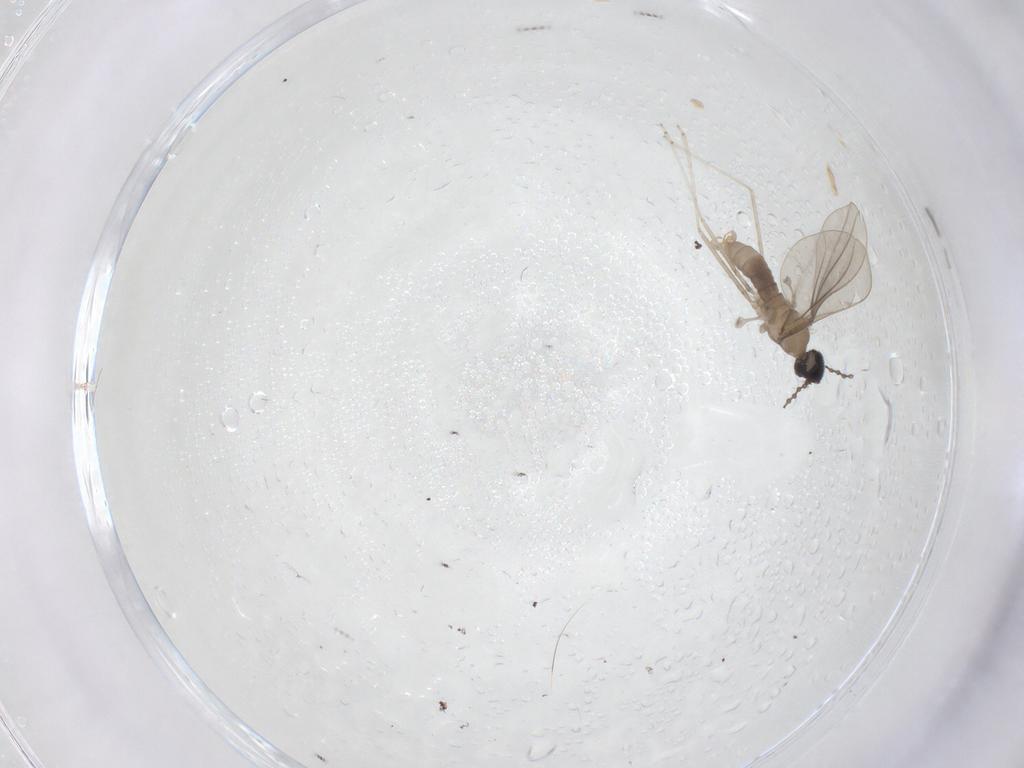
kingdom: Animalia
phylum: Arthropoda
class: Insecta
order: Diptera
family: Cecidomyiidae
